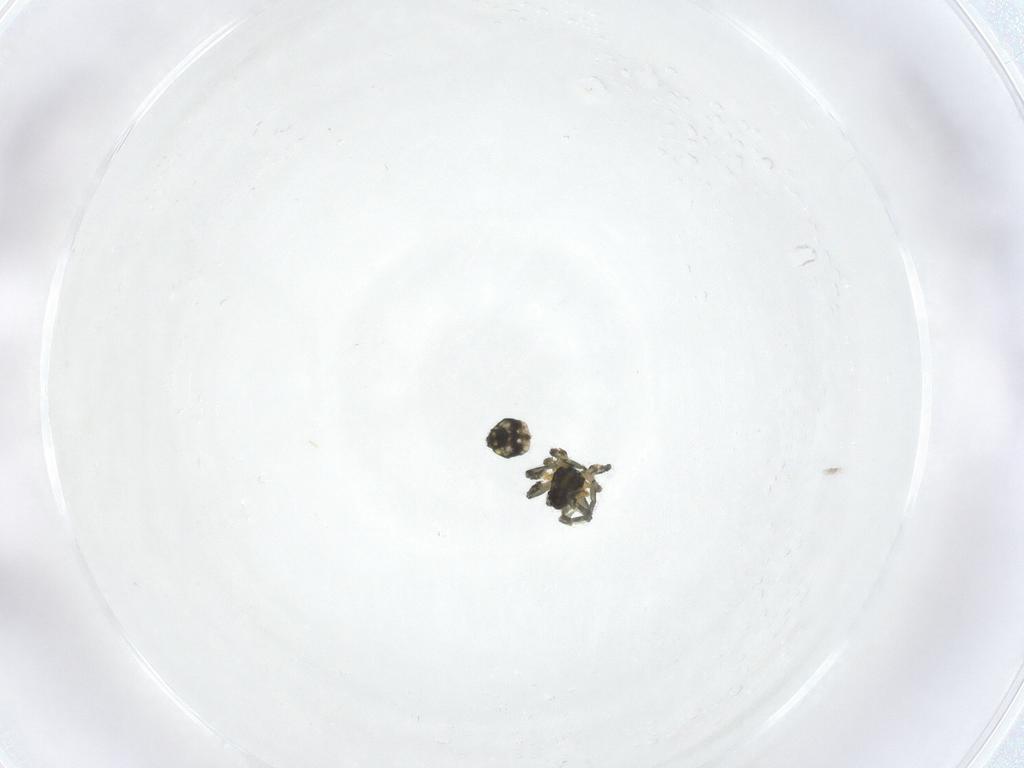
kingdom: Animalia
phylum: Arthropoda
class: Arachnida
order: Araneae
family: Tetragnathidae
